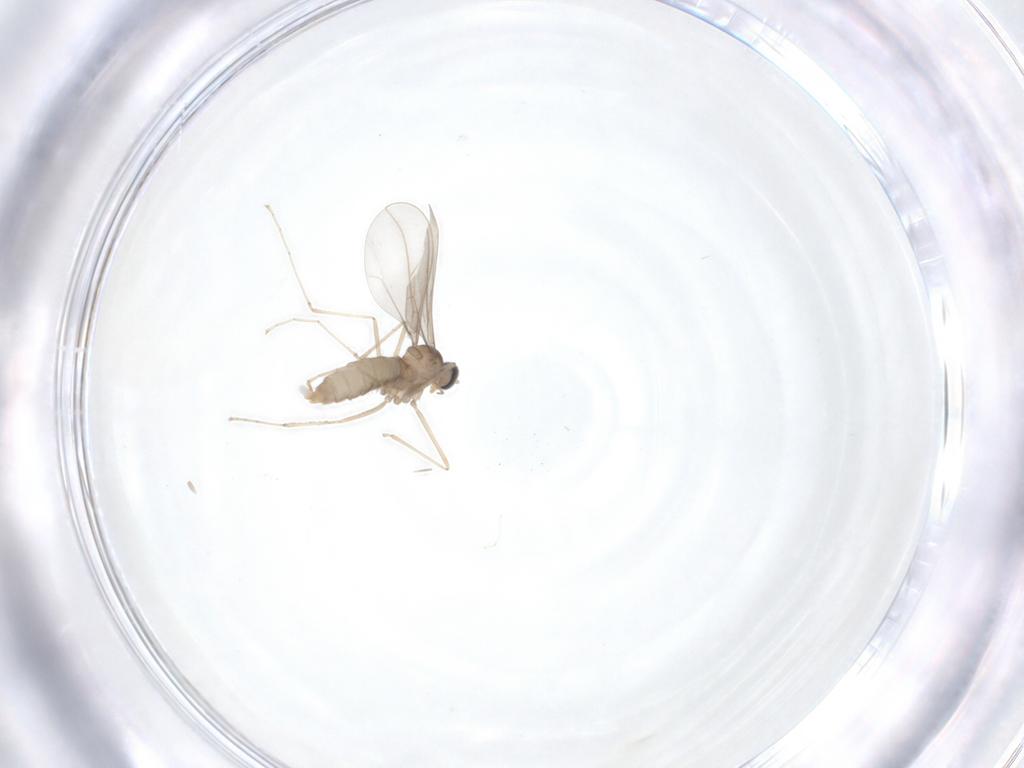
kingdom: Animalia
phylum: Arthropoda
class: Insecta
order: Diptera
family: Cecidomyiidae
